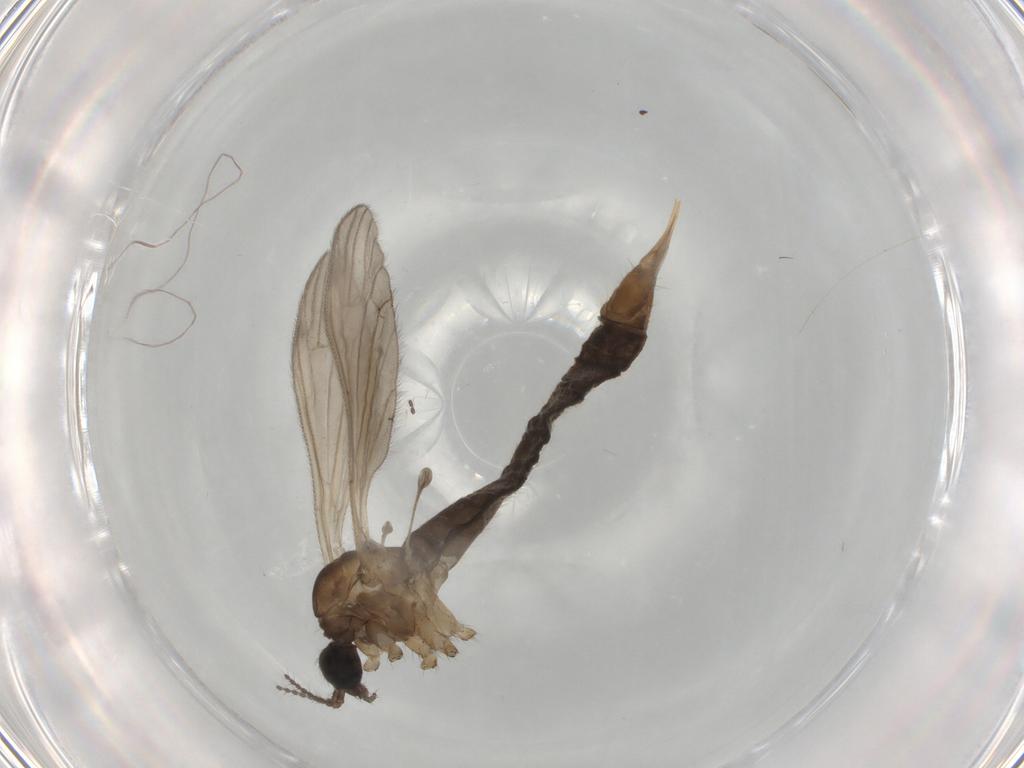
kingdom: Animalia
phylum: Arthropoda
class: Insecta
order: Diptera
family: Limoniidae
